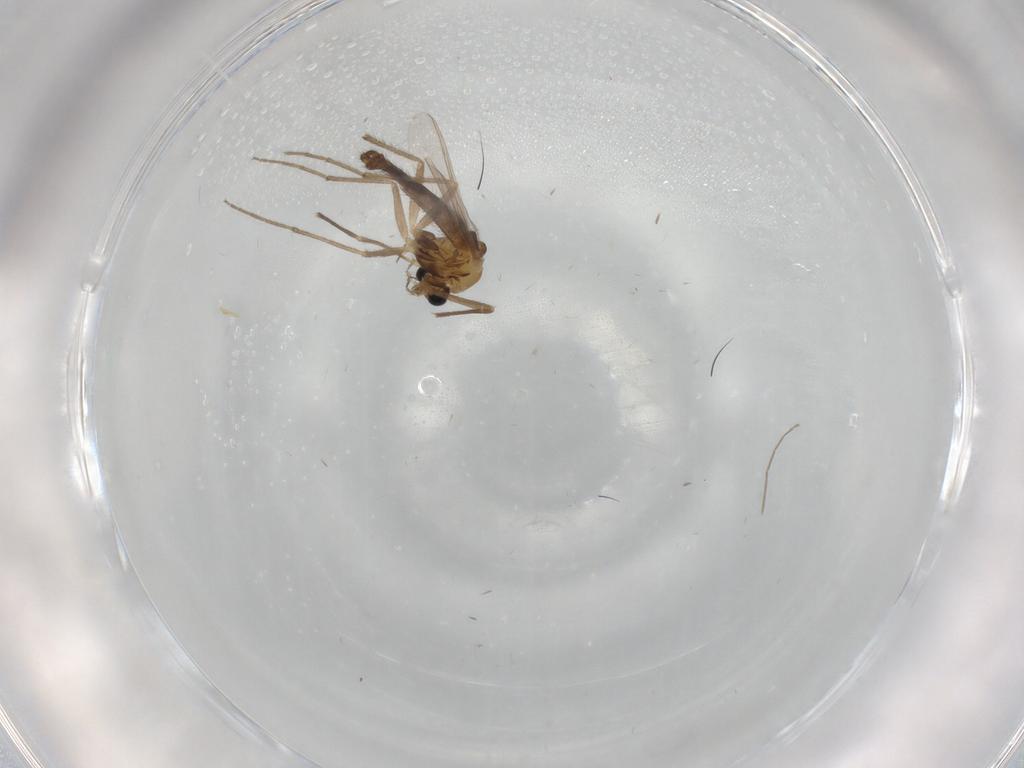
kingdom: Animalia
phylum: Arthropoda
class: Insecta
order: Diptera
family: Chironomidae
